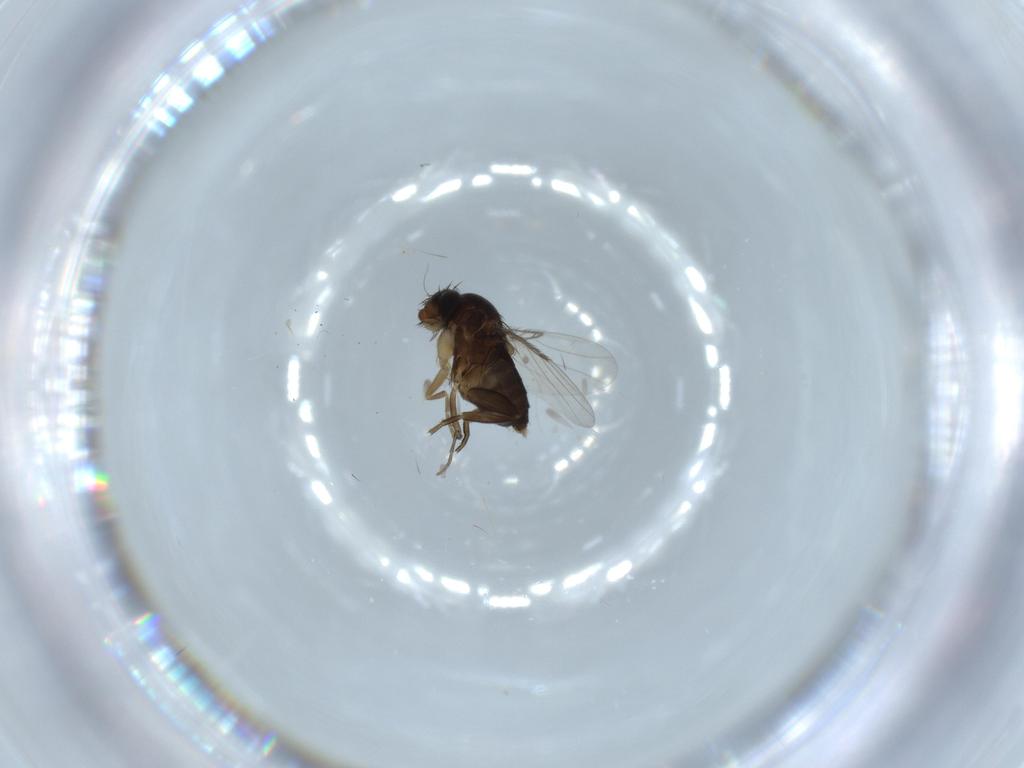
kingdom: Animalia
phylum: Arthropoda
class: Insecta
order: Diptera
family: Phoridae
